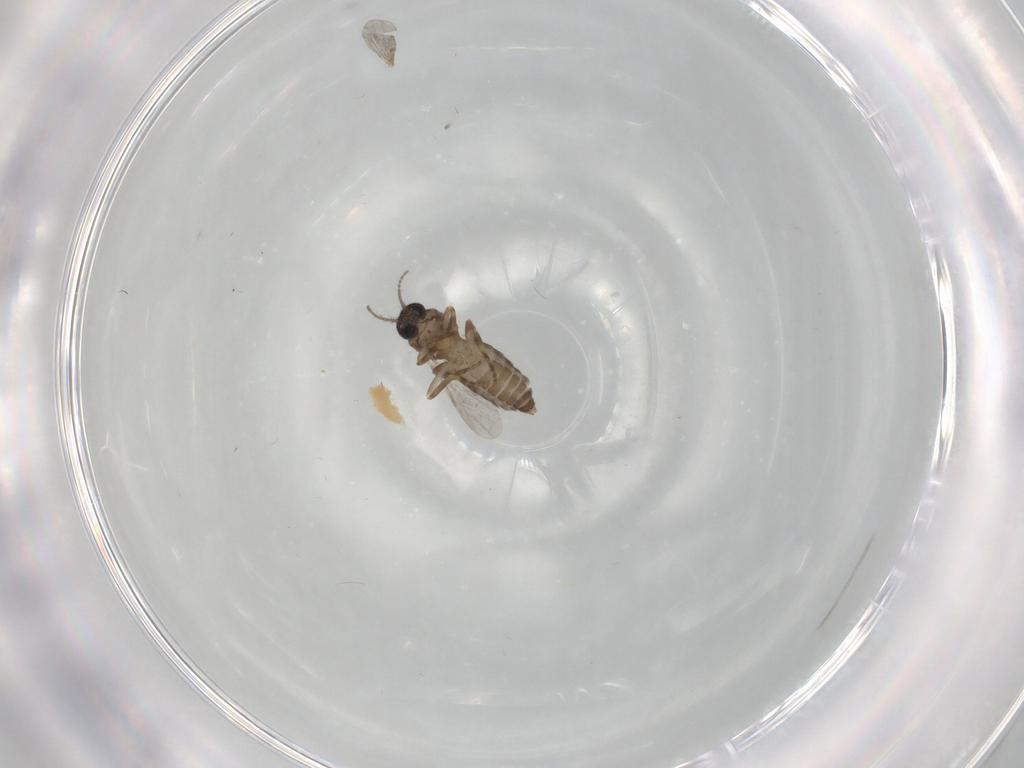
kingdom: Animalia
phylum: Arthropoda
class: Insecta
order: Diptera
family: Ceratopogonidae
